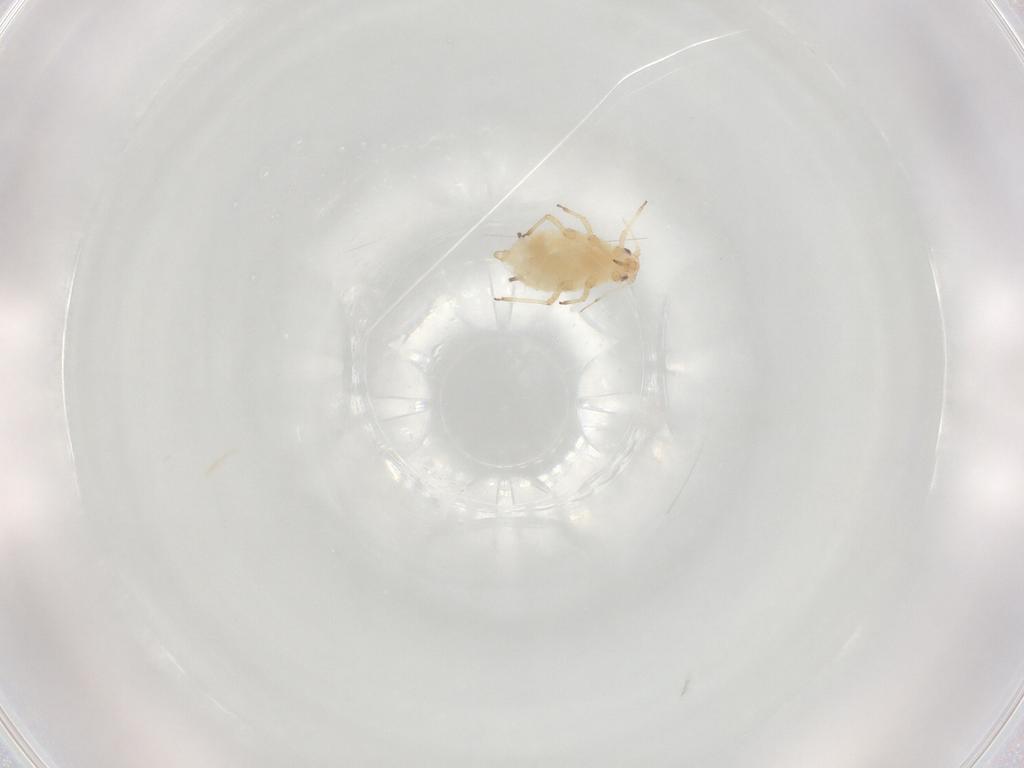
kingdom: Animalia
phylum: Arthropoda
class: Insecta
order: Hemiptera
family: Aphididae
